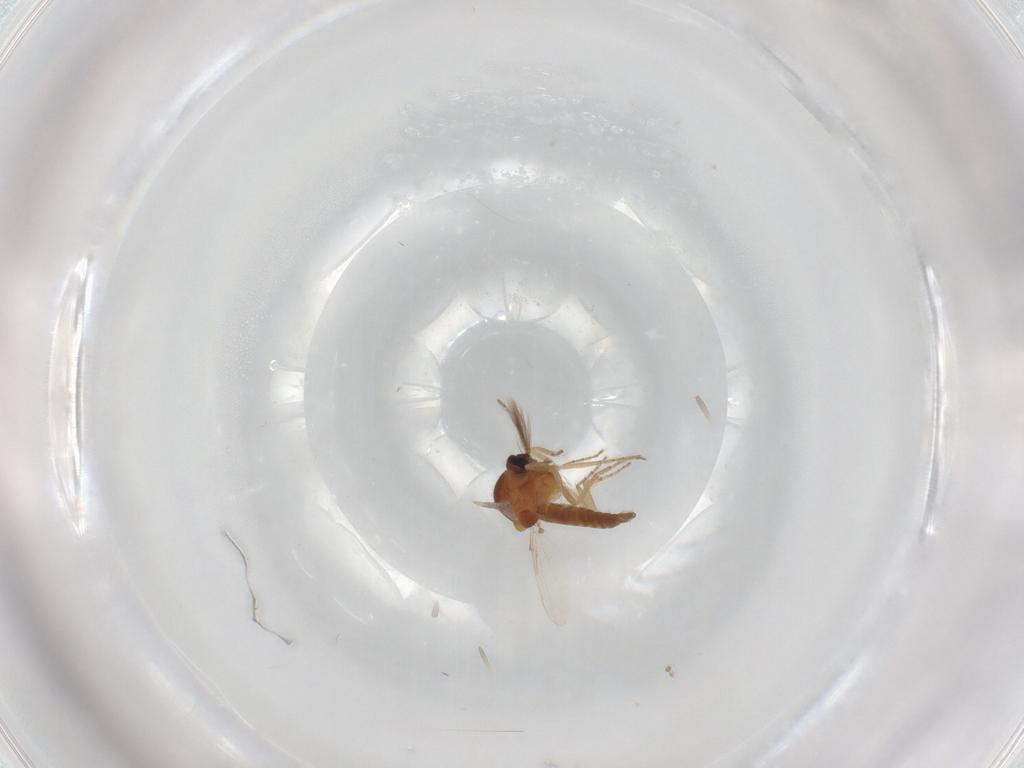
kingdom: Animalia
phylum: Arthropoda
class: Insecta
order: Diptera
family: Ceratopogonidae
